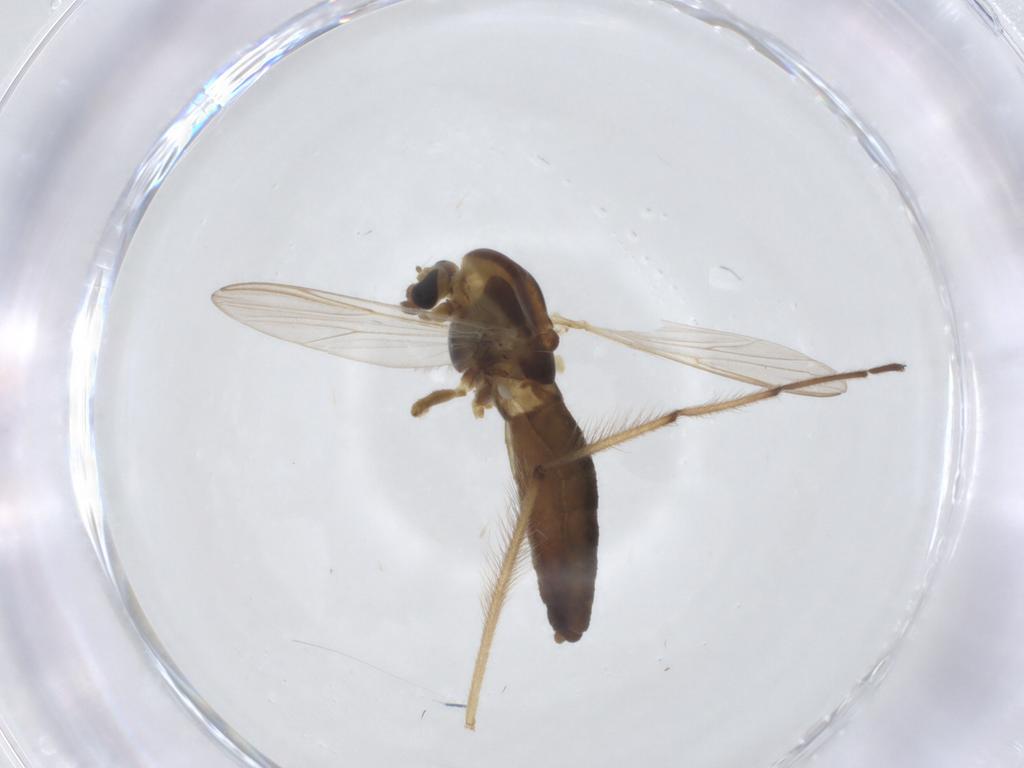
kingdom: Animalia
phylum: Arthropoda
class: Insecta
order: Diptera
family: Chironomidae
